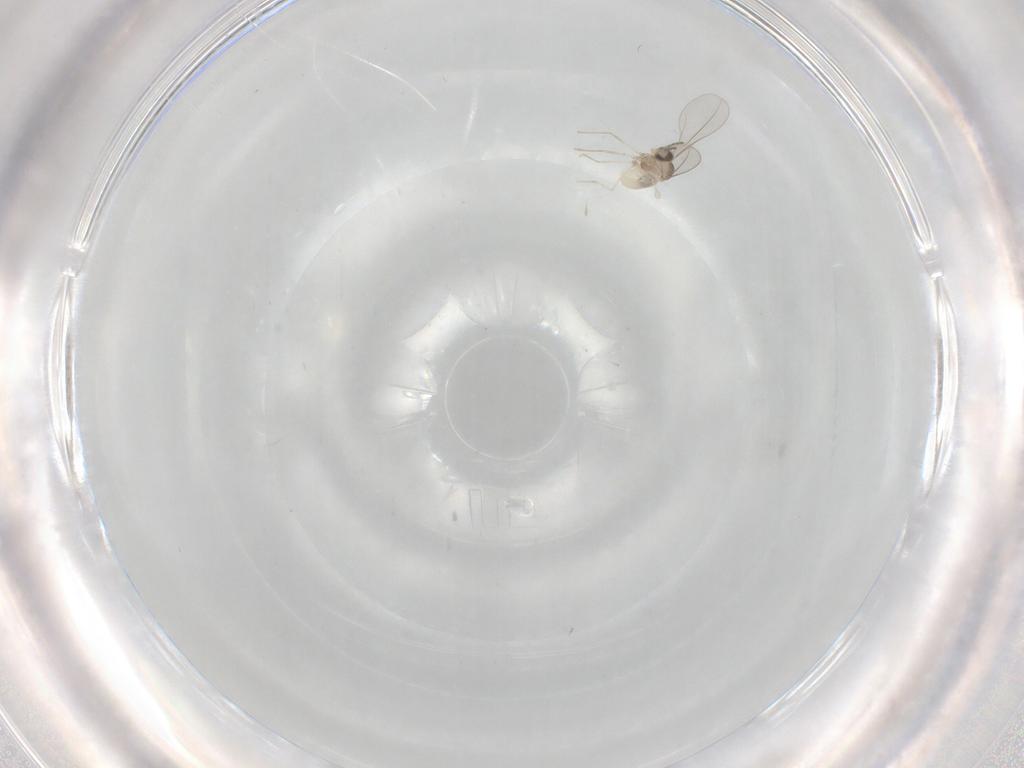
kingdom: Animalia
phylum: Arthropoda
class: Insecta
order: Diptera
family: Cecidomyiidae
